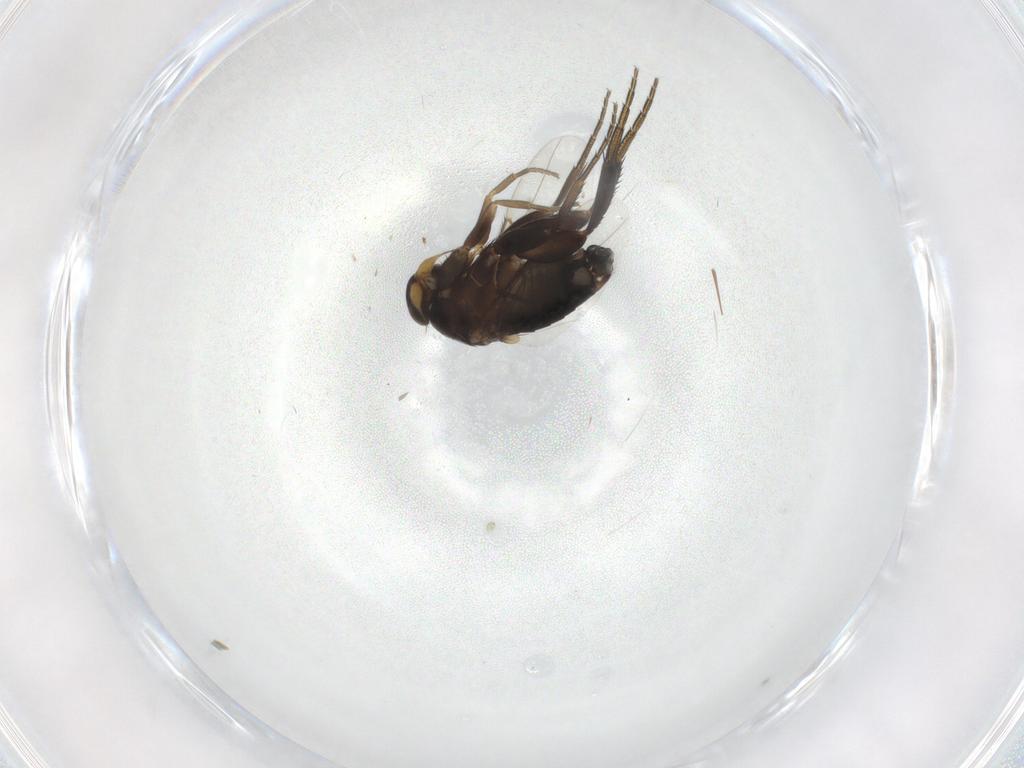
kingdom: Animalia
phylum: Arthropoda
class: Insecta
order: Diptera
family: Phoridae
